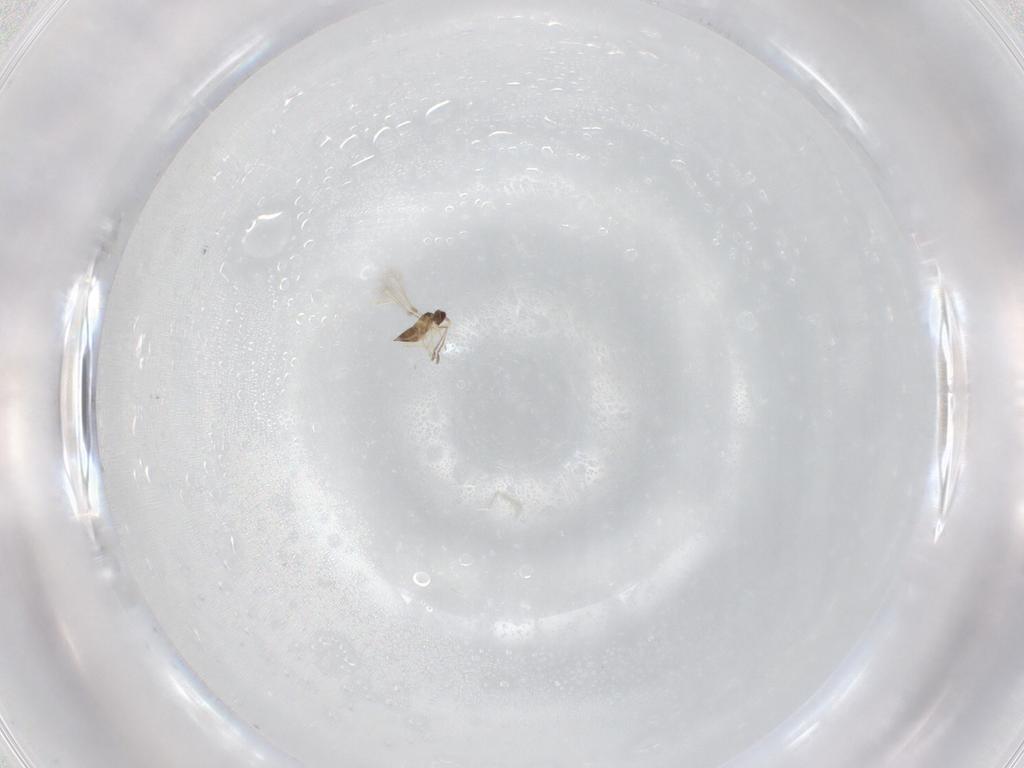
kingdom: Animalia
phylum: Arthropoda
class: Insecta
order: Hymenoptera
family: Mymaridae
